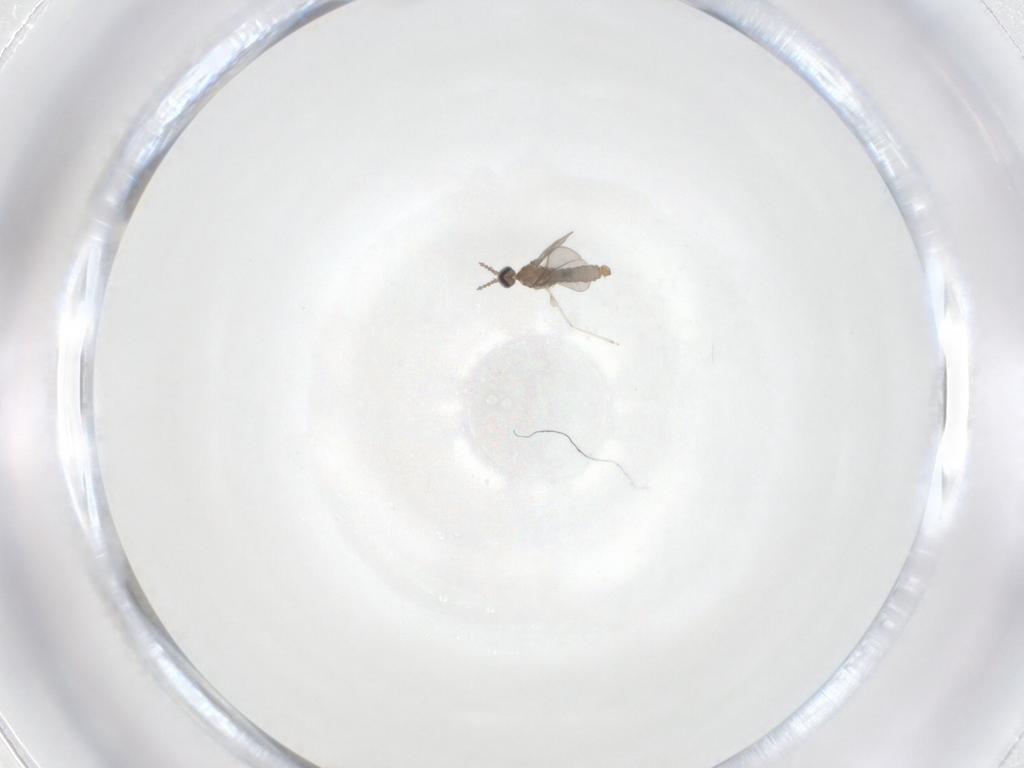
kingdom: Animalia
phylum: Arthropoda
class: Insecta
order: Diptera
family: Cecidomyiidae
